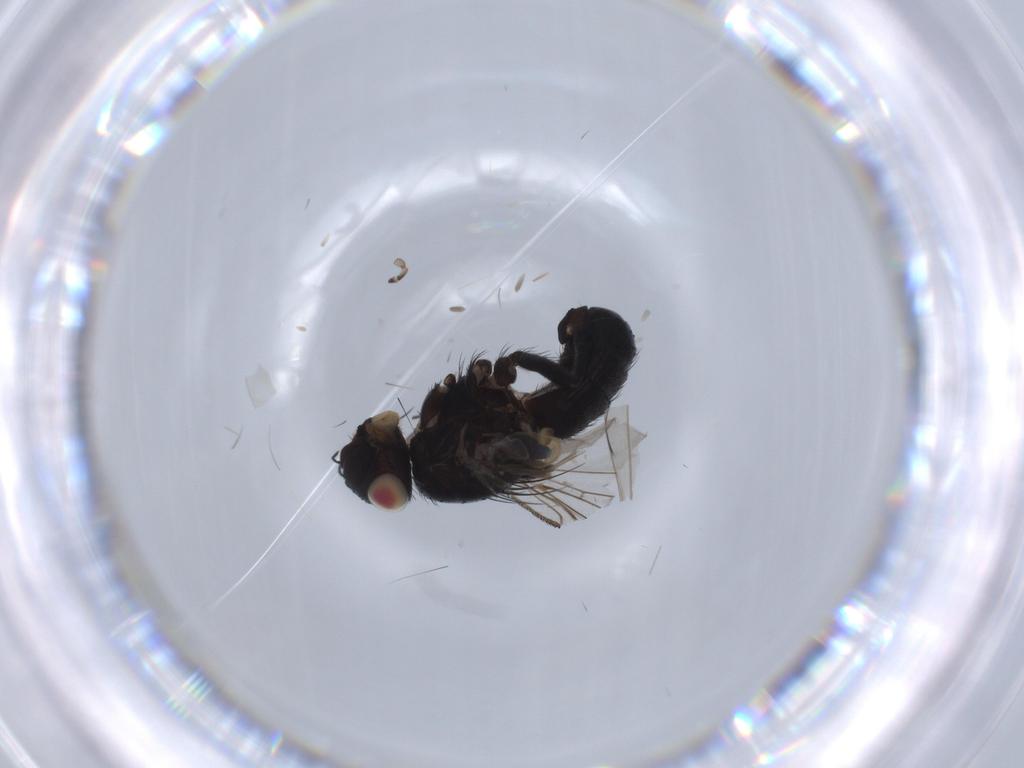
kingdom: Animalia
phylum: Arthropoda
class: Insecta
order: Diptera
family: Tachinidae
